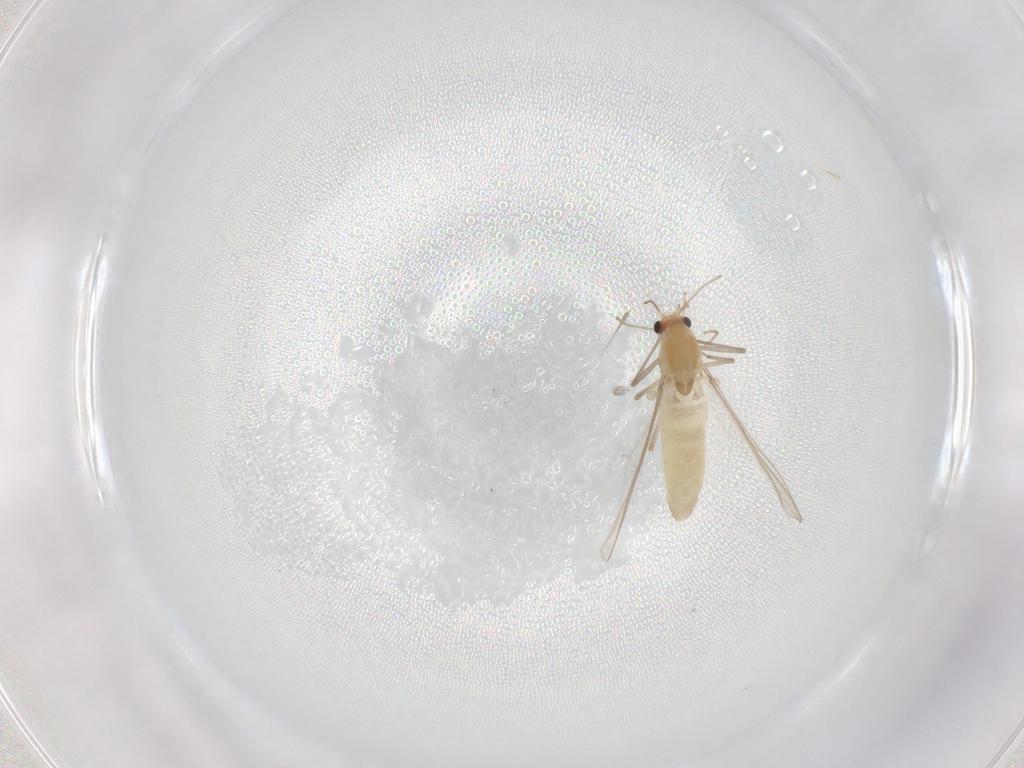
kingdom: Animalia
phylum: Arthropoda
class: Insecta
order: Diptera
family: Chironomidae
